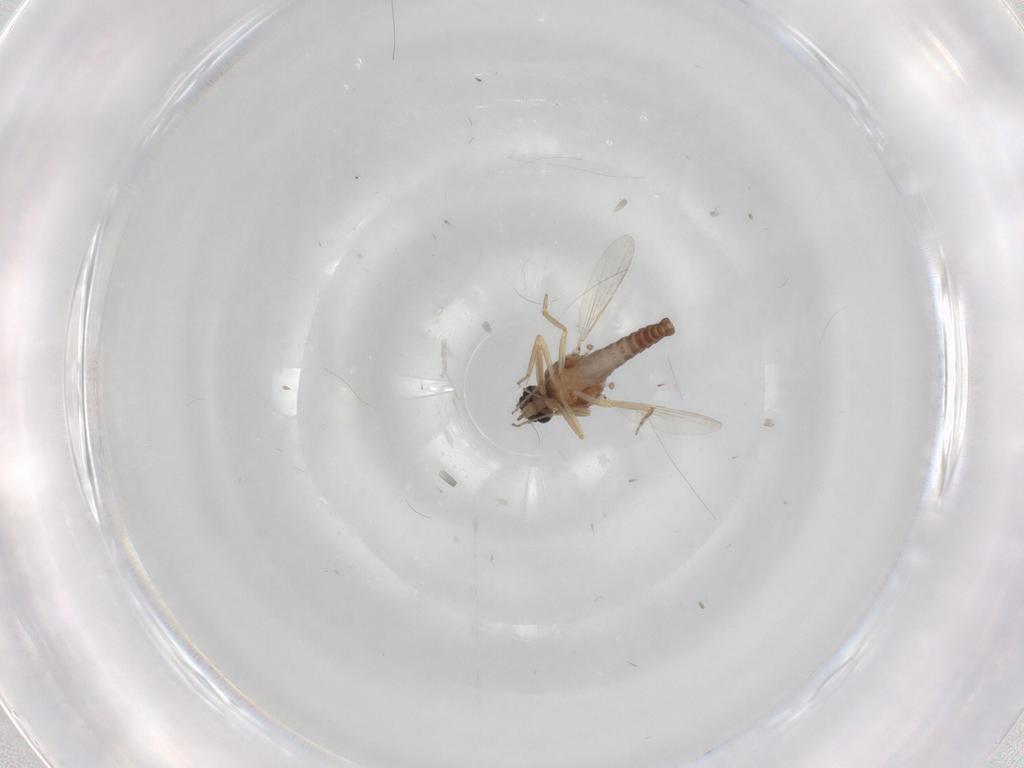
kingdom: Animalia
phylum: Arthropoda
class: Insecta
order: Diptera
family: Ceratopogonidae
